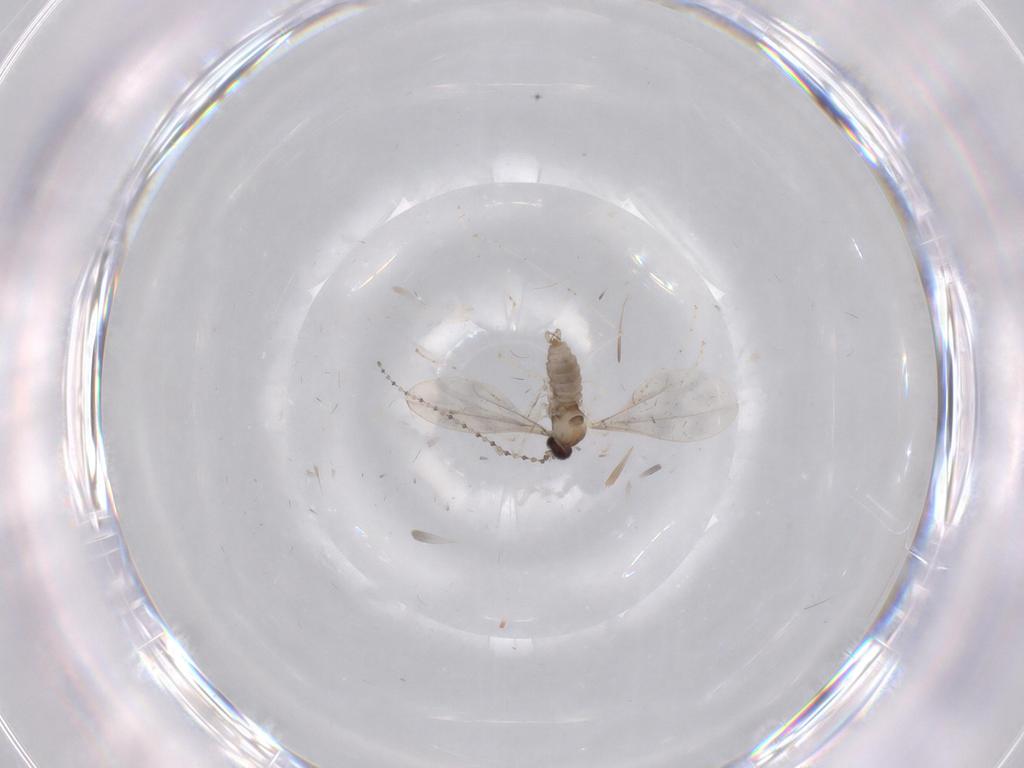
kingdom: Animalia
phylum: Arthropoda
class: Insecta
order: Diptera
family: Cecidomyiidae
